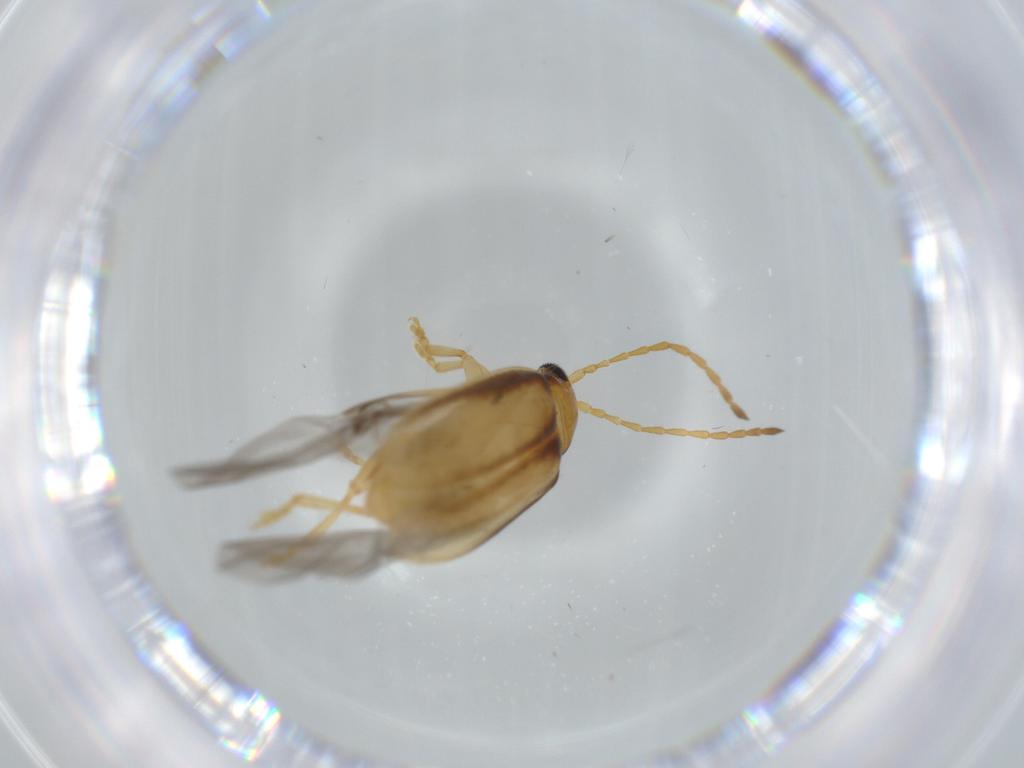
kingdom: Animalia
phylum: Arthropoda
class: Insecta
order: Coleoptera
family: Chrysomelidae
